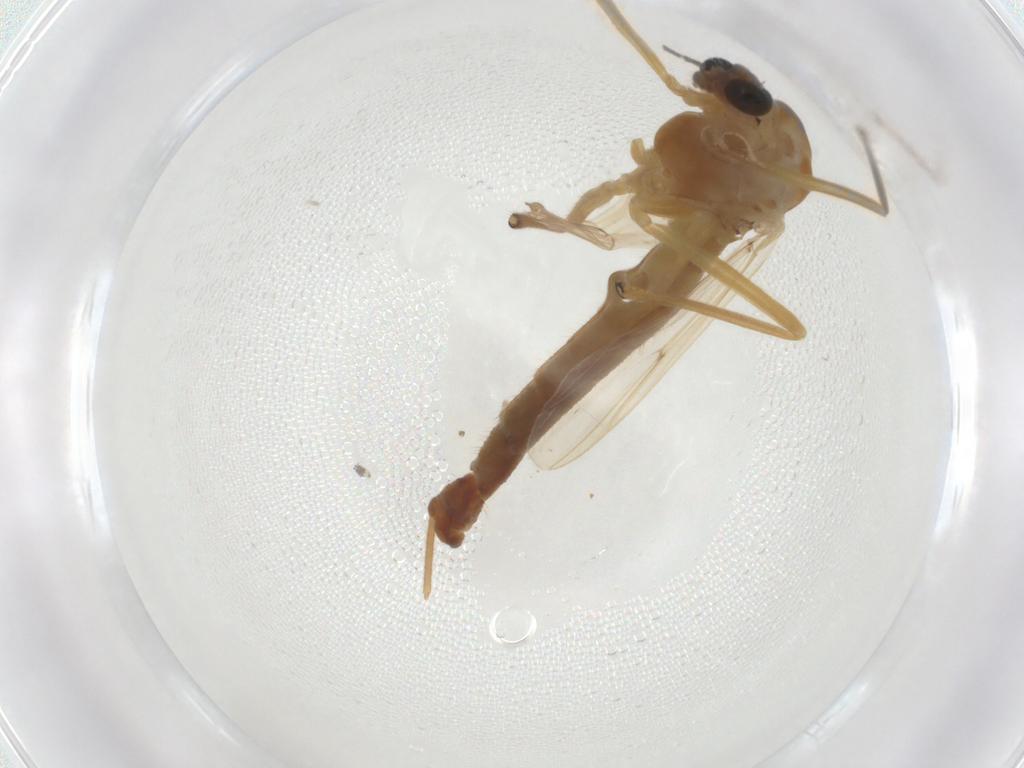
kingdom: Animalia
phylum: Arthropoda
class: Insecta
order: Diptera
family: Chironomidae
